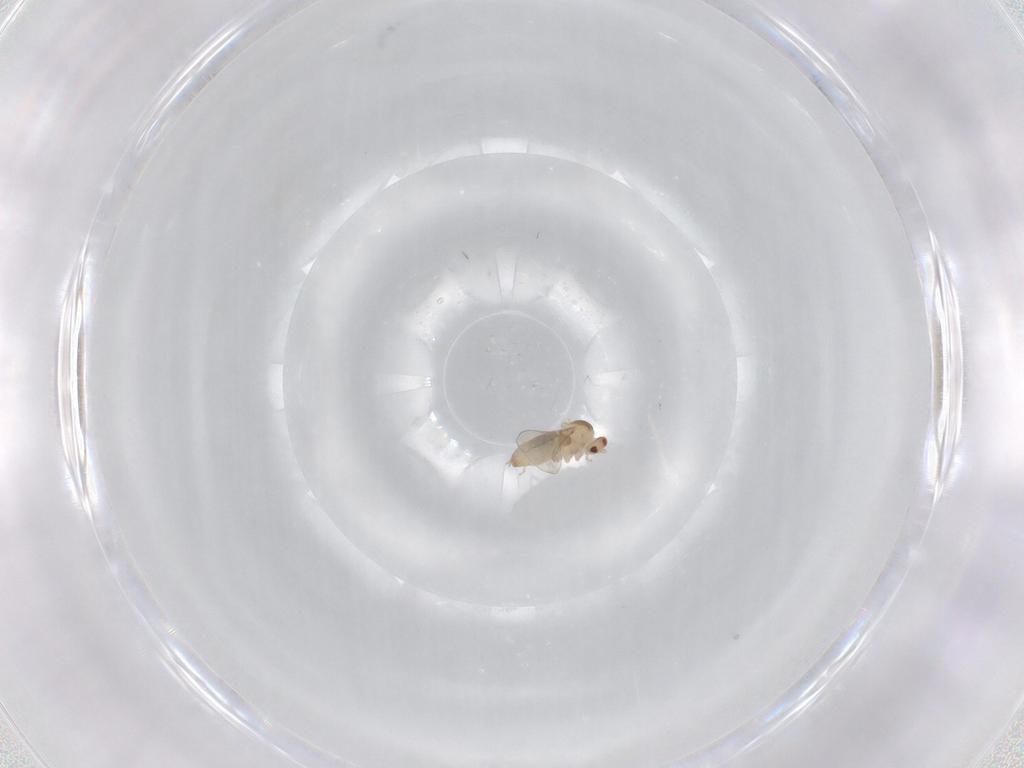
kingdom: Animalia
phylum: Arthropoda
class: Insecta
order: Diptera
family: Cecidomyiidae
